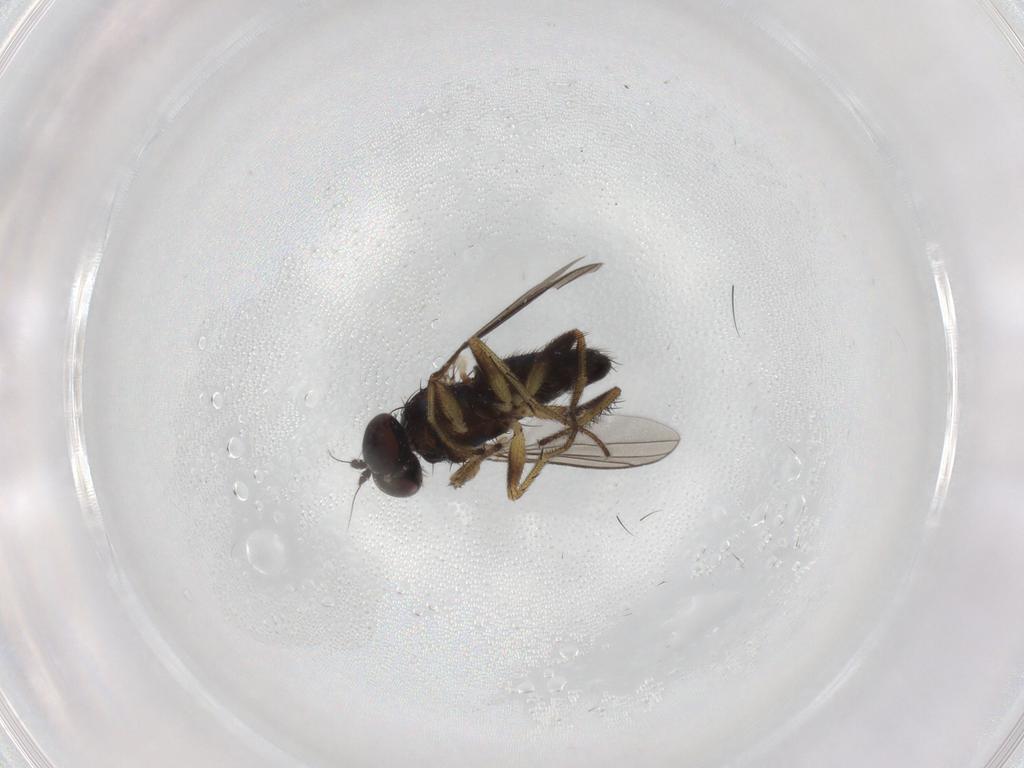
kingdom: Animalia
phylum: Arthropoda
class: Insecta
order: Diptera
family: Dolichopodidae
